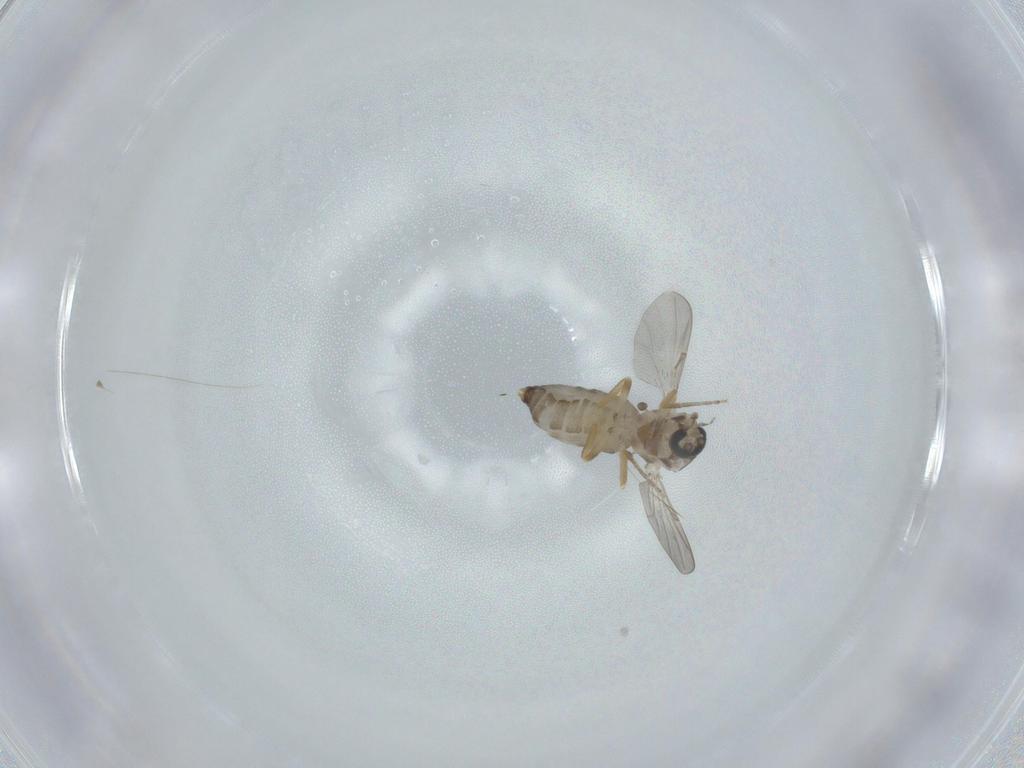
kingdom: Animalia
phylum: Arthropoda
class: Insecta
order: Diptera
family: Ceratopogonidae
